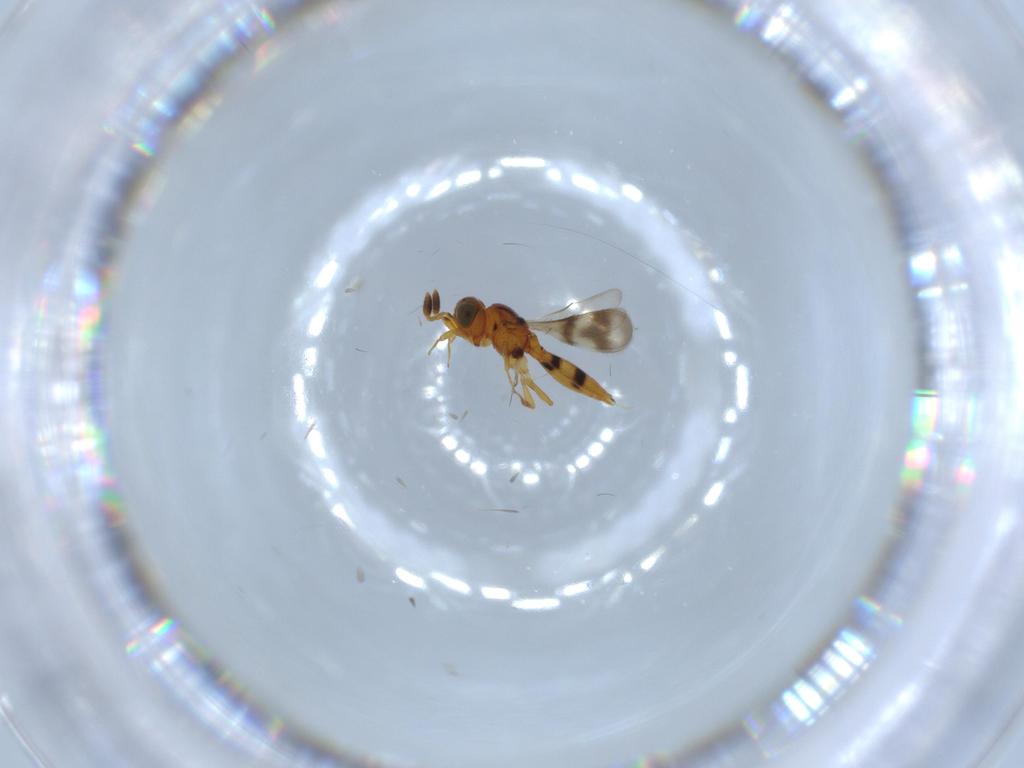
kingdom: Animalia
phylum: Arthropoda
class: Insecta
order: Hymenoptera
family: Scelionidae
